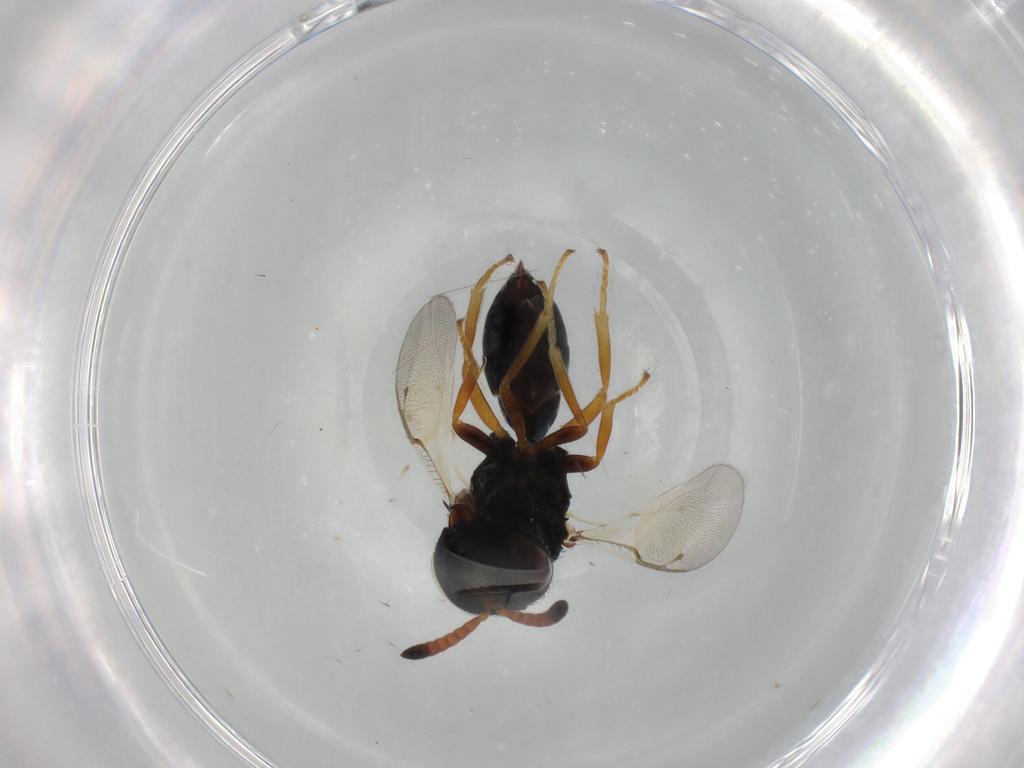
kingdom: Animalia
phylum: Arthropoda
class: Insecta
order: Hymenoptera
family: Pteromalidae
